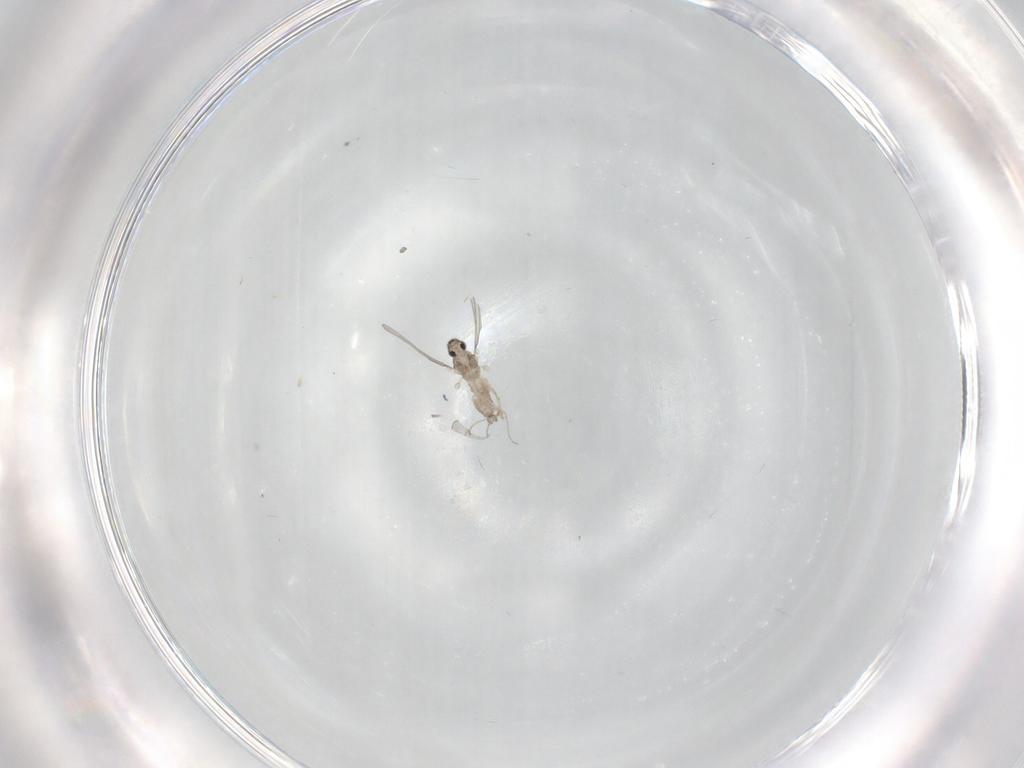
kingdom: Animalia
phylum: Arthropoda
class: Insecta
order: Diptera
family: Cecidomyiidae
